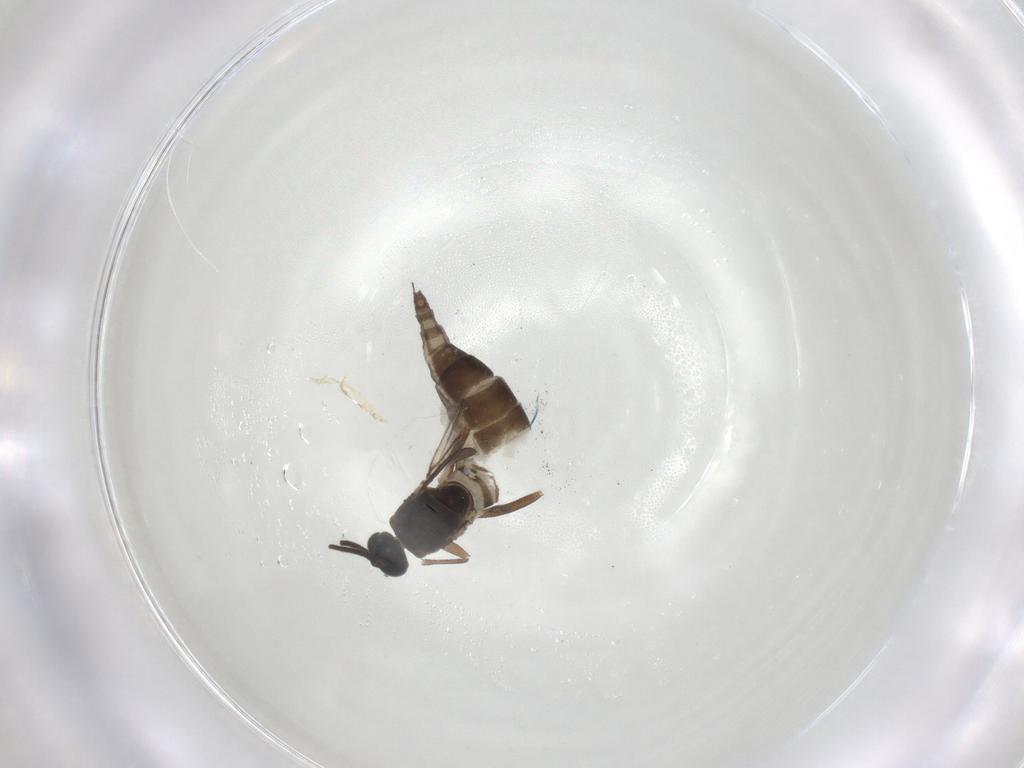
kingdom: Animalia
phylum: Arthropoda
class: Insecta
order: Diptera
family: Sciaridae
